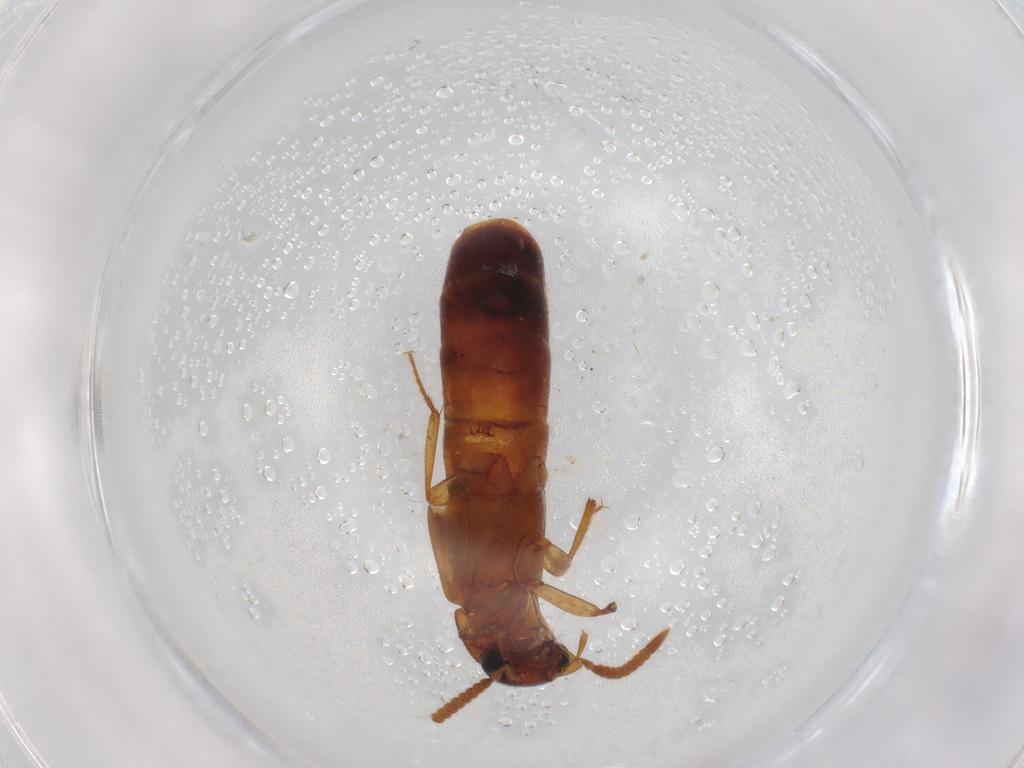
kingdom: Animalia
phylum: Arthropoda
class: Insecta
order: Coleoptera
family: Staphylinidae
